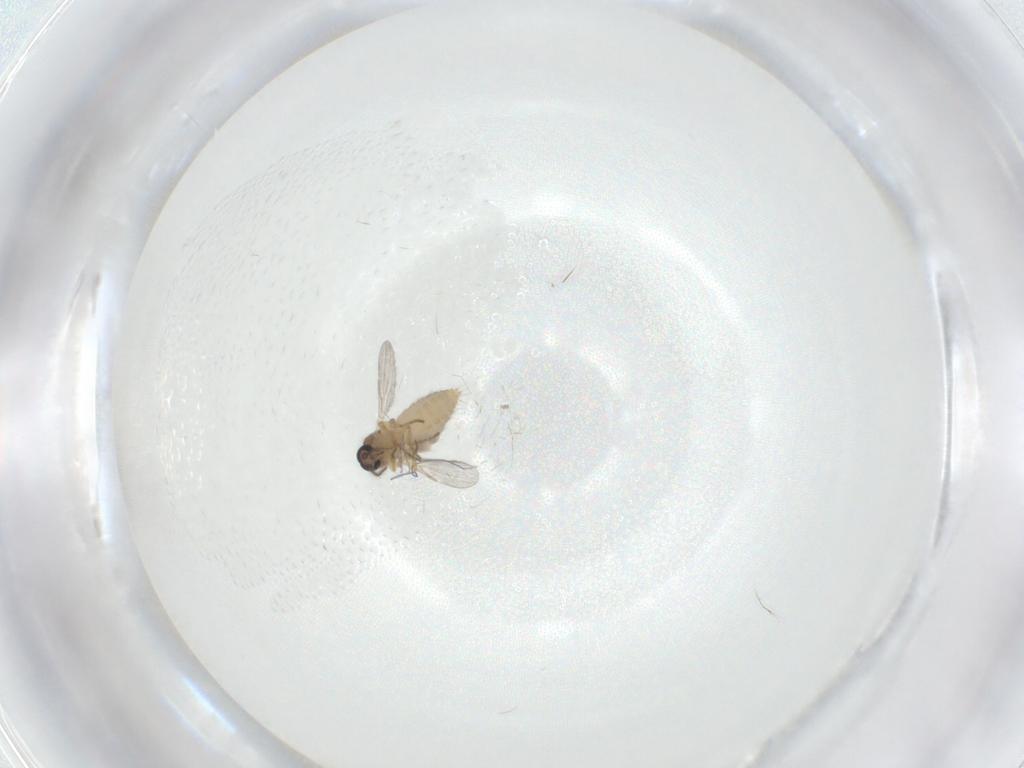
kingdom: Animalia
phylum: Arthropoda
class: Insecta
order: Diptera
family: Ceratopogonidae
